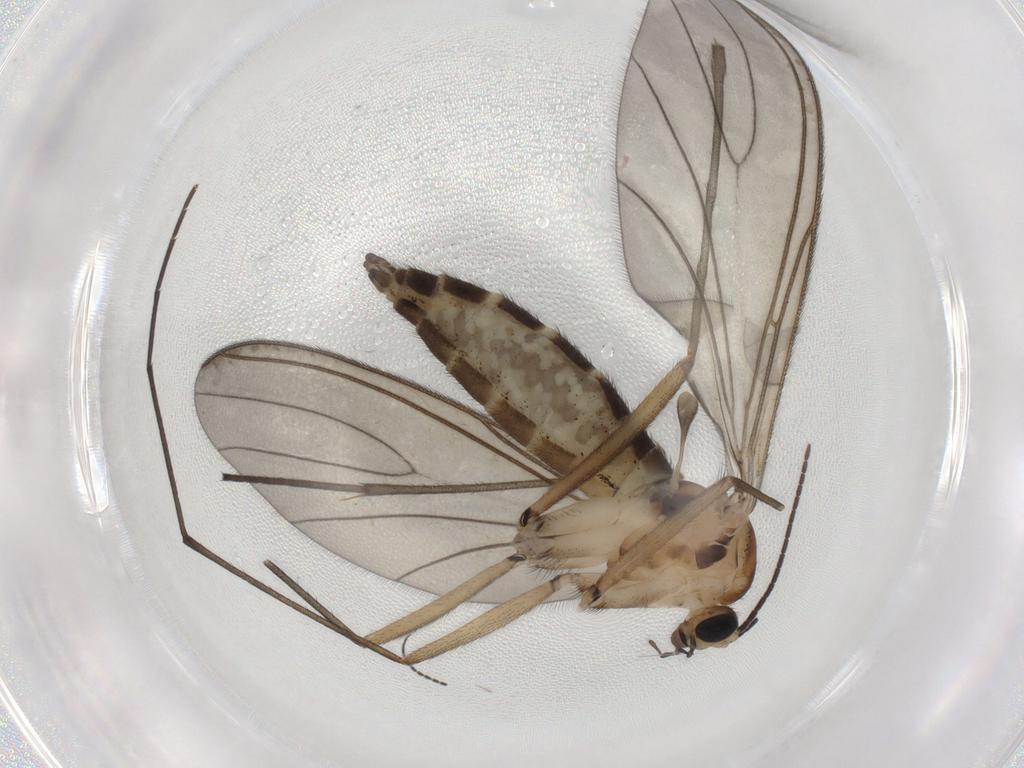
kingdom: Animalia
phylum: Arthropoda
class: Insecta
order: Diptera
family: Sciaridae
